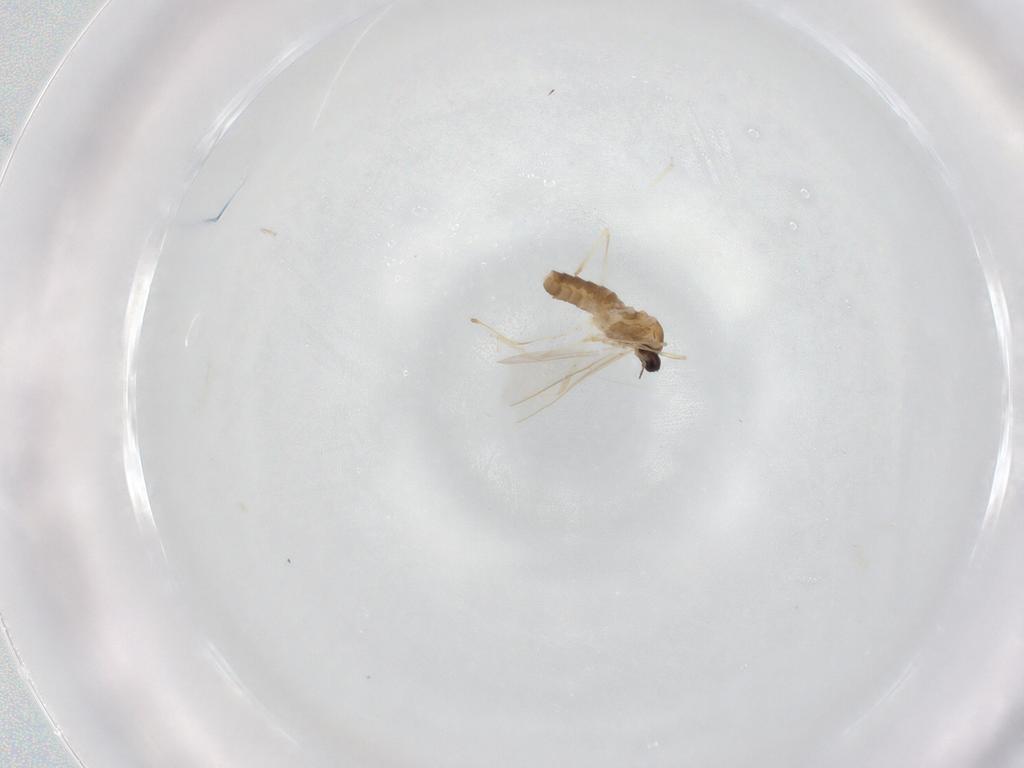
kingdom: Animalia
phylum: Arthropoda
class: Insecta
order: Diptera
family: Cecidomyiidae
